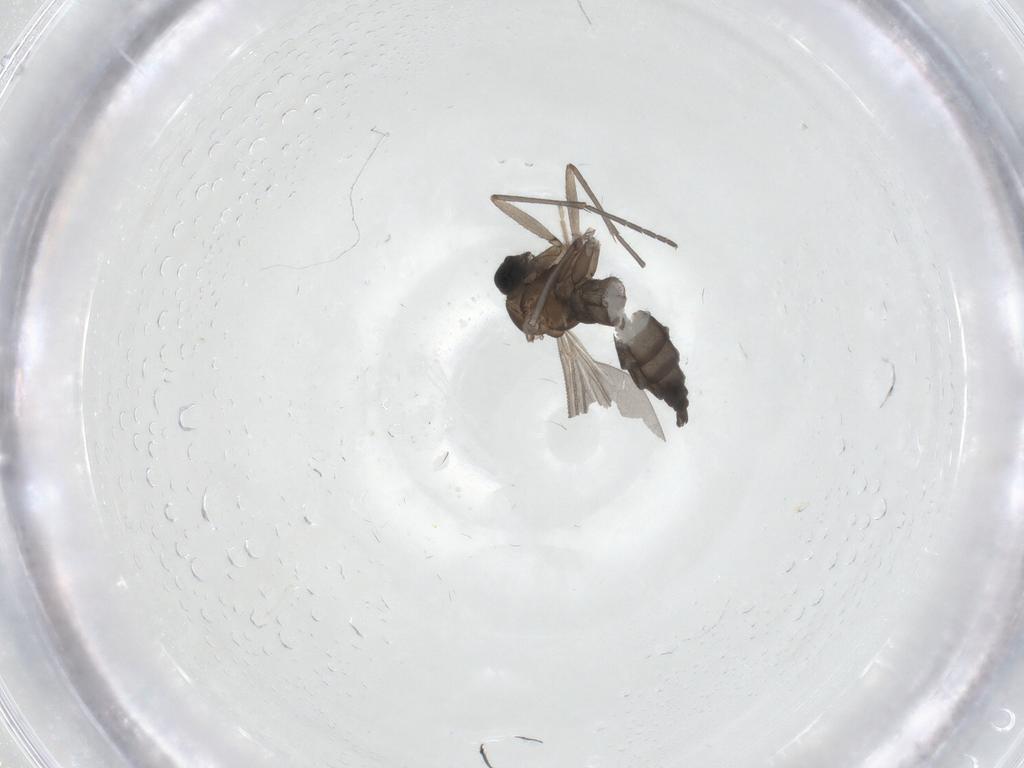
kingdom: Animalia
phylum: Arthropoda
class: Insecta
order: Diptera
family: Sciaridae
